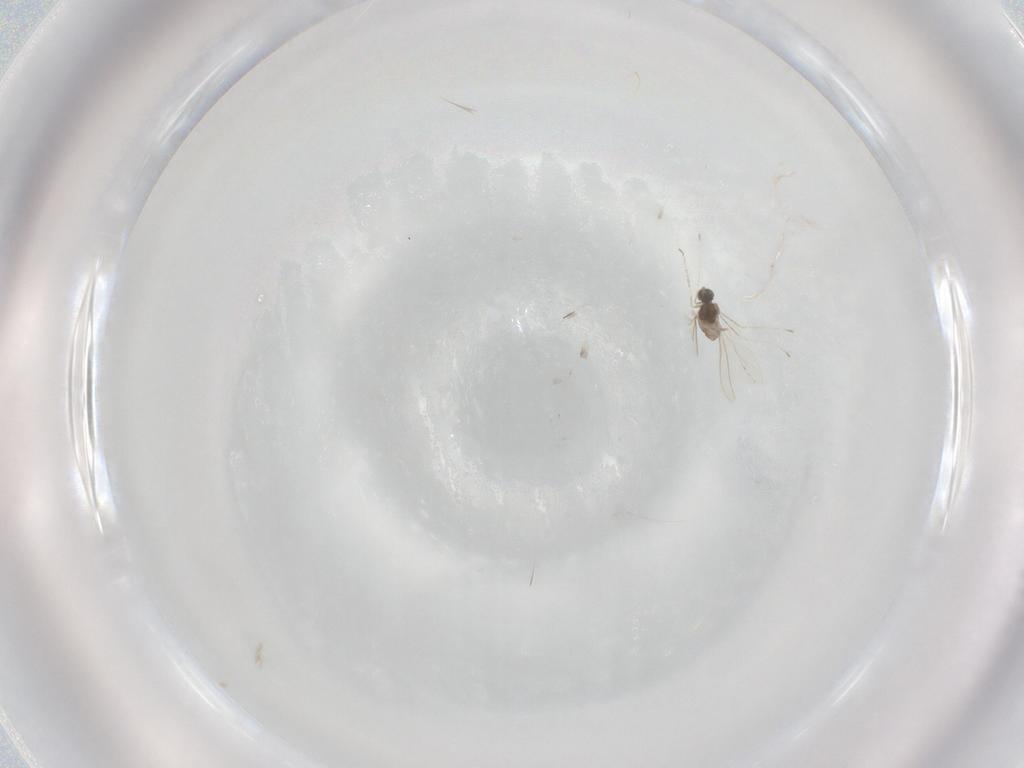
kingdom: Animalia
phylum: Arthropoda
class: Insecta
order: Diptera
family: Cecidomyiidae
